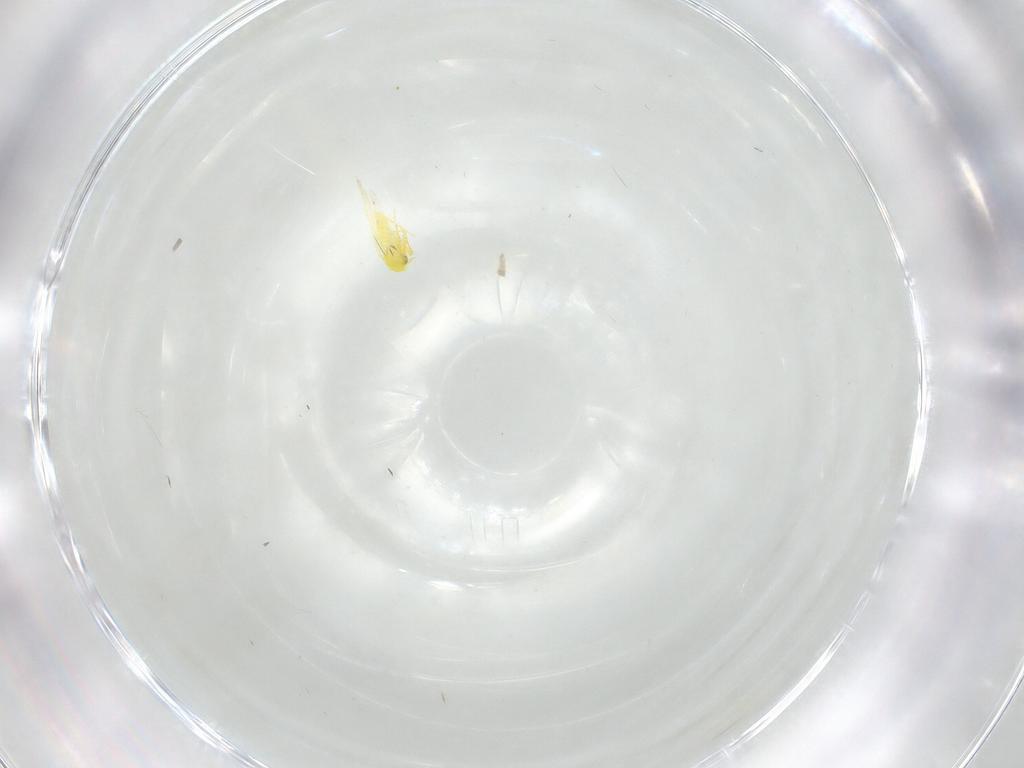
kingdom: Animalia
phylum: Arthropoda
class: Insecta
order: Hemiptera
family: Aleyrodidae
